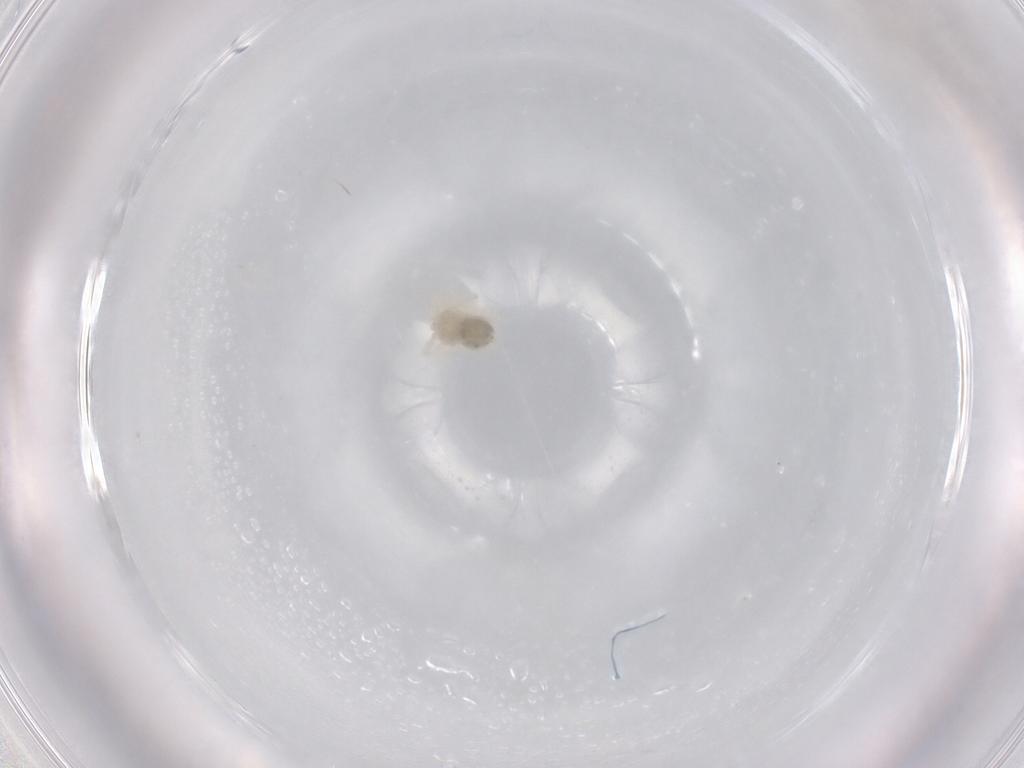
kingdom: Animalia
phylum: Arthropoda
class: Arachnida
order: Trombidiformes
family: Anystidae
